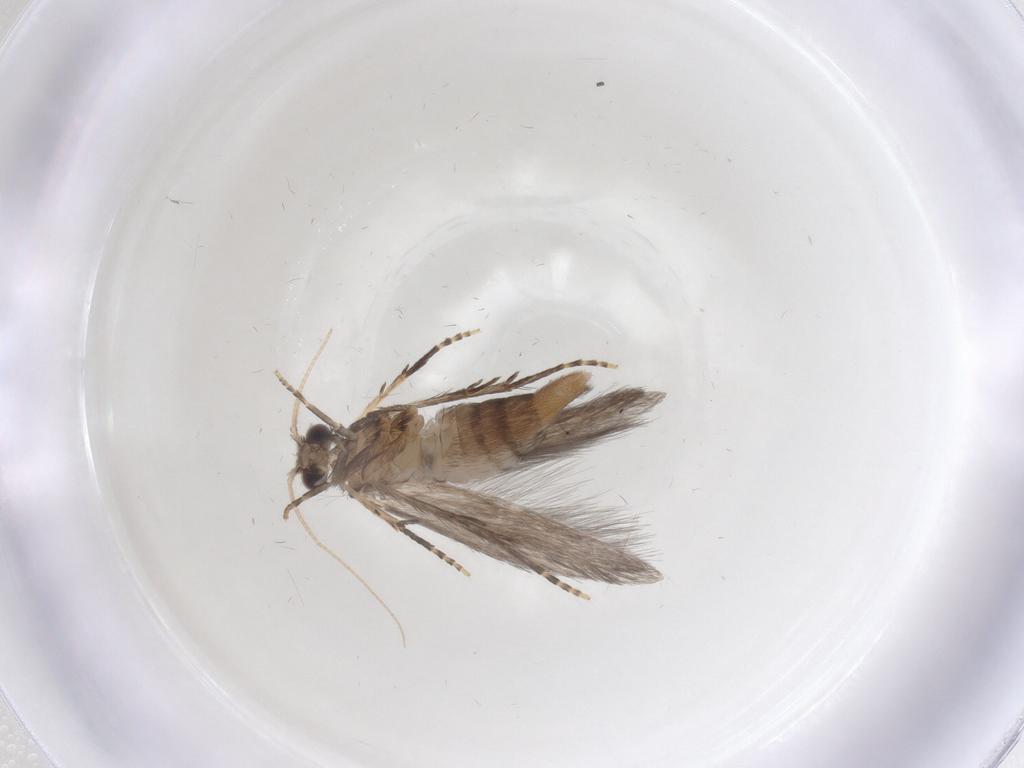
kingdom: Animalia
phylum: Arthropoda
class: Insecta
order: Trichoptera
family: Hydroptilidae
